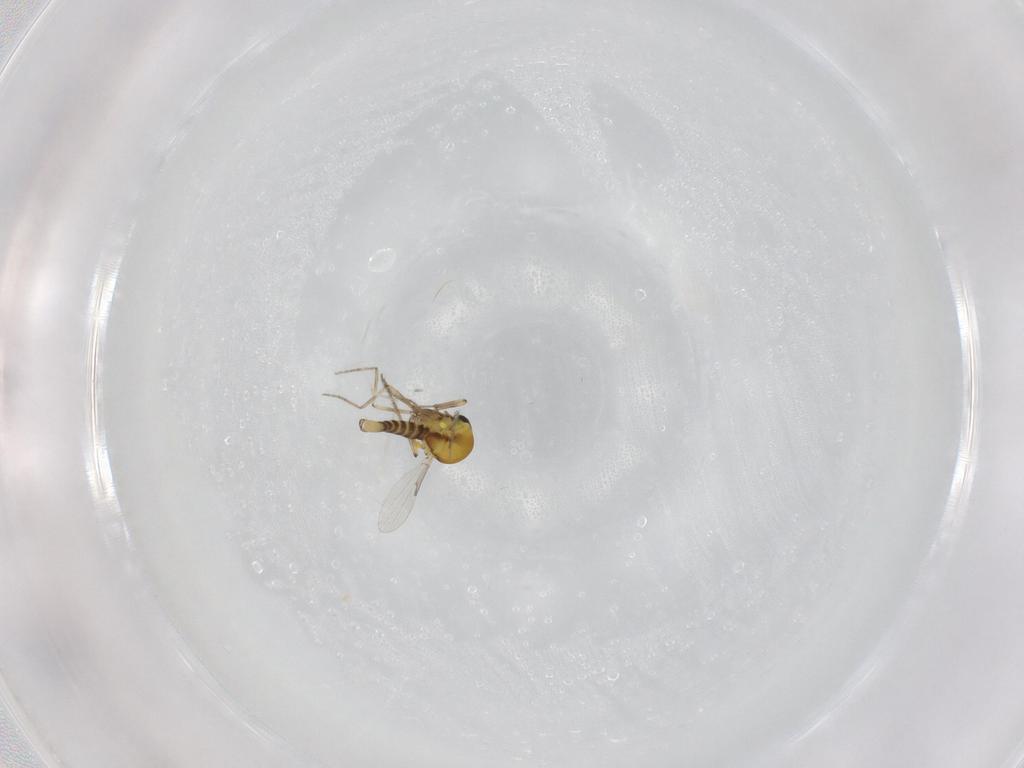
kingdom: Animalia
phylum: Arthropoda
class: Insecta
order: Diptera
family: Ceratopogonidae
